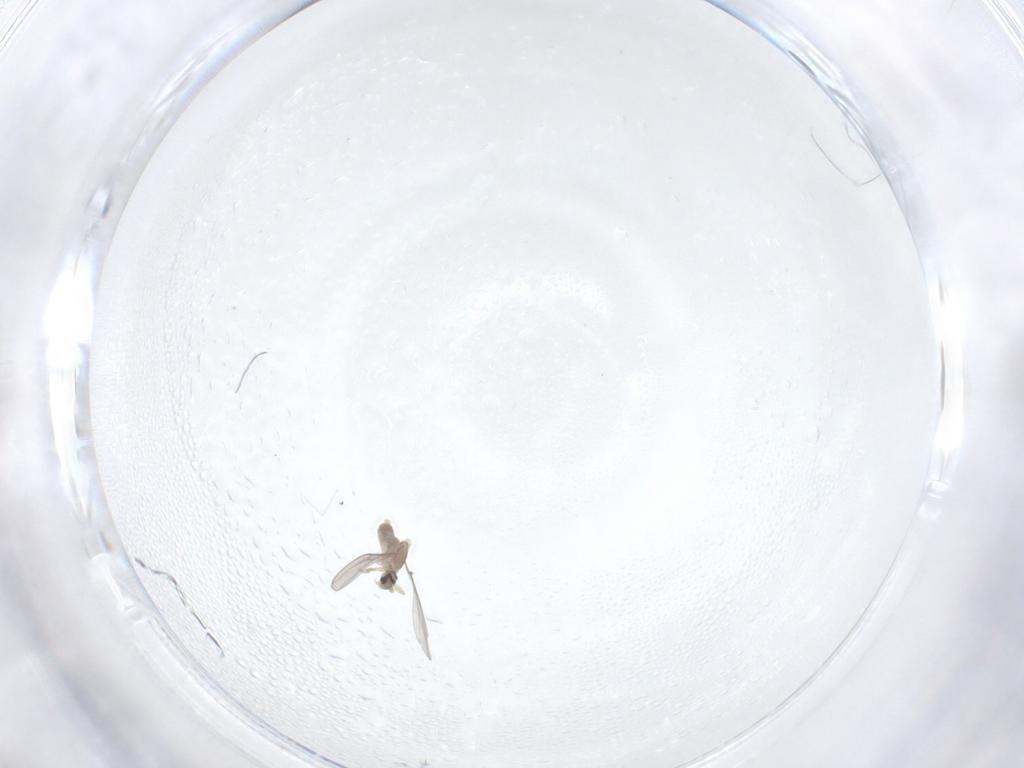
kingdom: Animalia
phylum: Arthropoda
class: Insecta
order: Diptera
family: Cecidomyiidae
